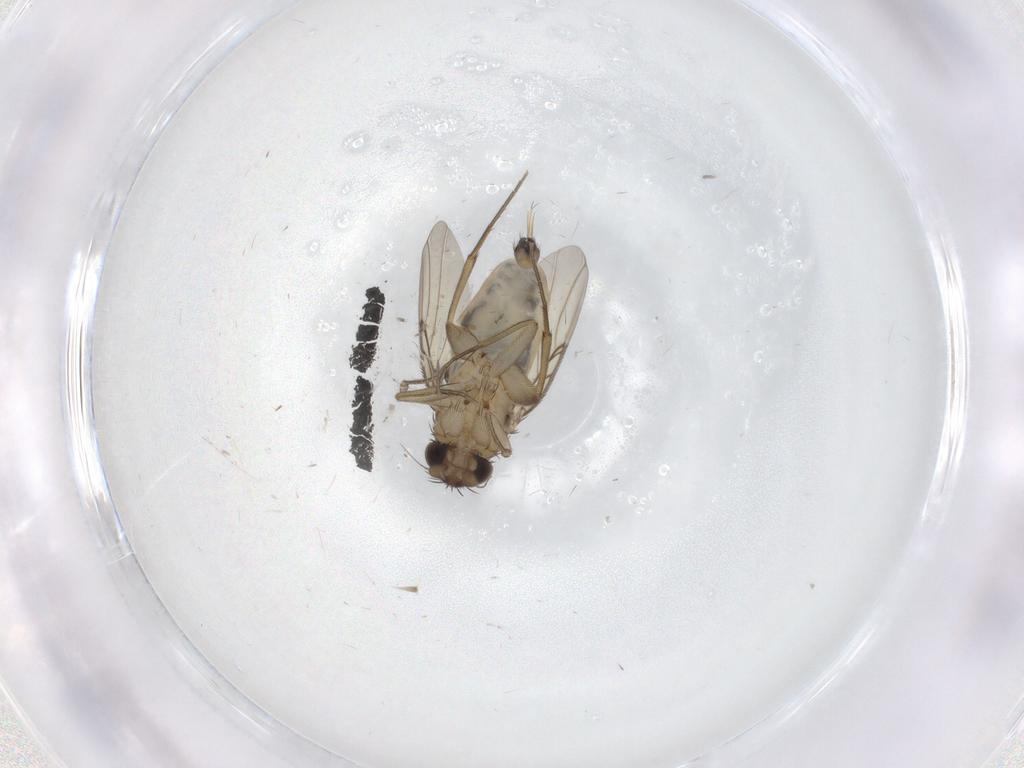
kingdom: Animalia
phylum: Arthropoda
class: Insecta
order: Diptera
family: Phoridae
